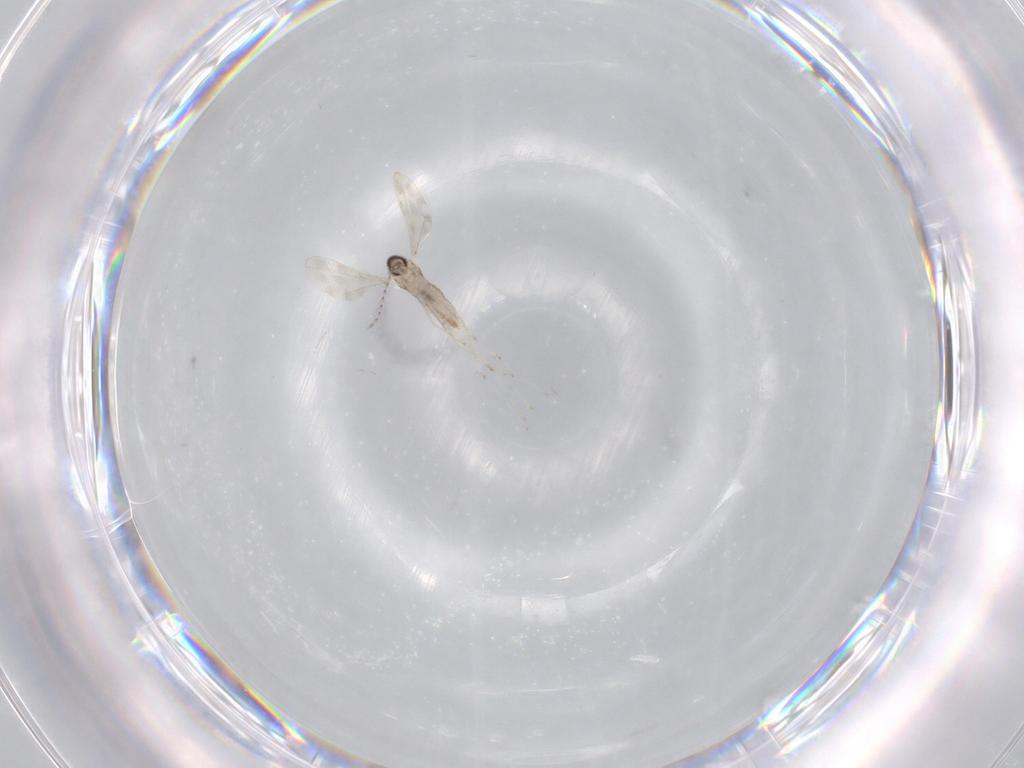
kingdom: Animalia
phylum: Arthropoda
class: Insecta
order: Diptera
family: Cecidomyiidae
